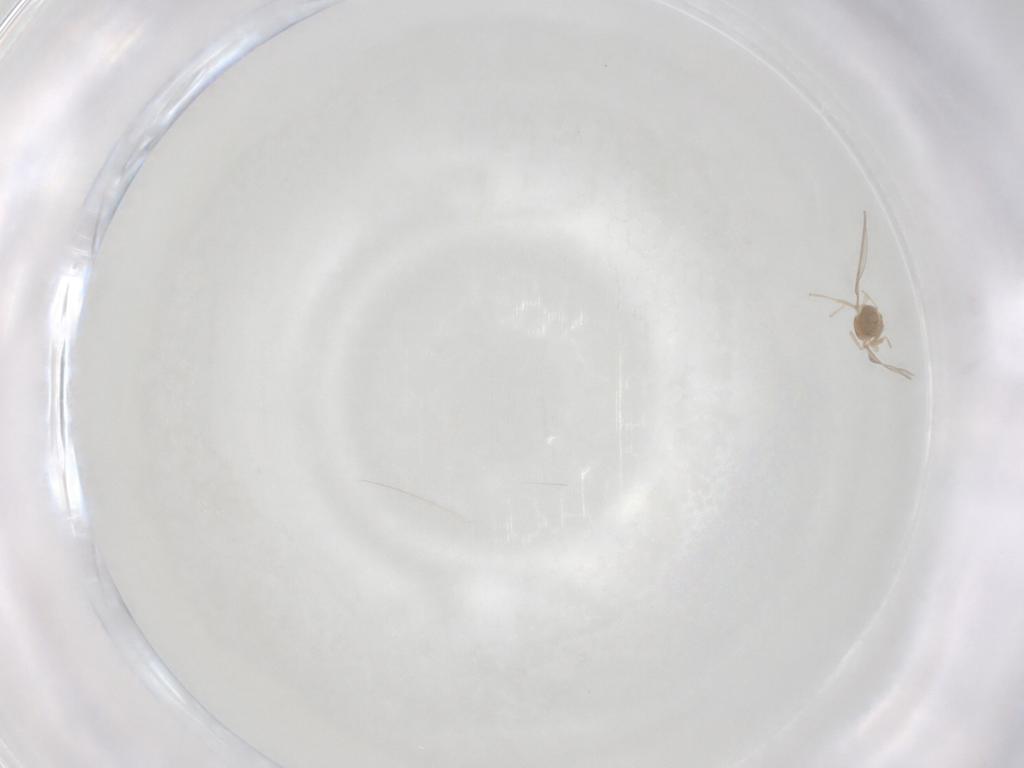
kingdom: Animalia
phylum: Arthropoda
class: Insecta
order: Diptera
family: Cecidomyiidae
